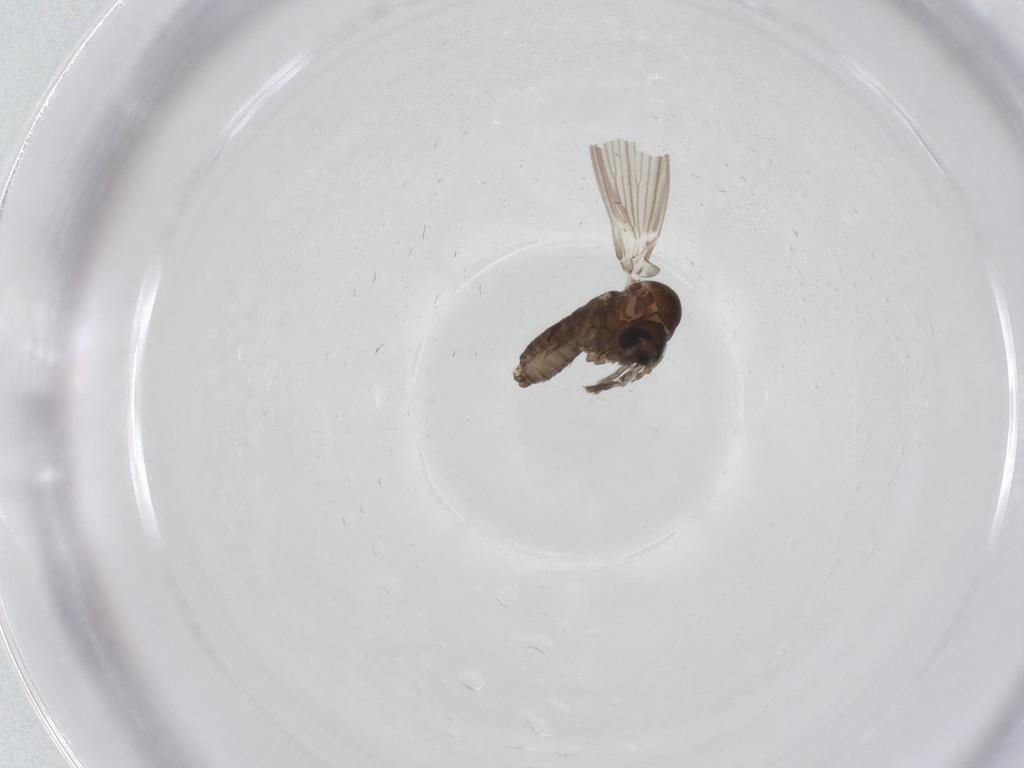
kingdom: Animalia
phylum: Arthropoda
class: Insecta
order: Diptera
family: Psychodidae
